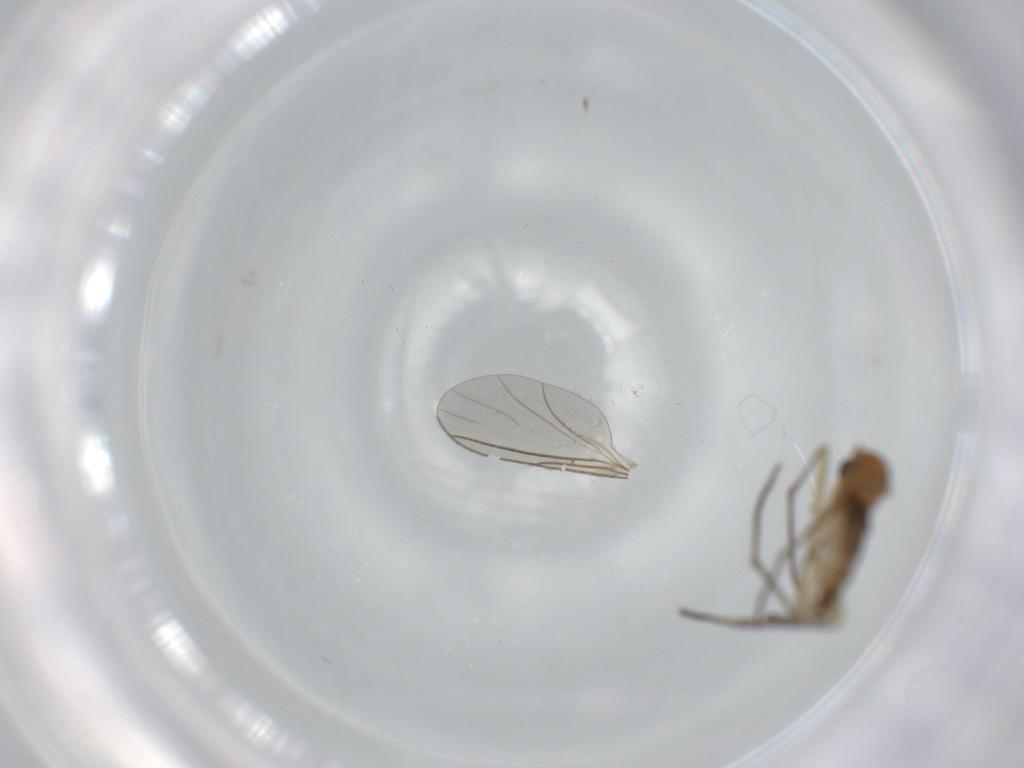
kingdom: Animalia
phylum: Arthropoda
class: Insecta
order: Diptera
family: Sciaridae
